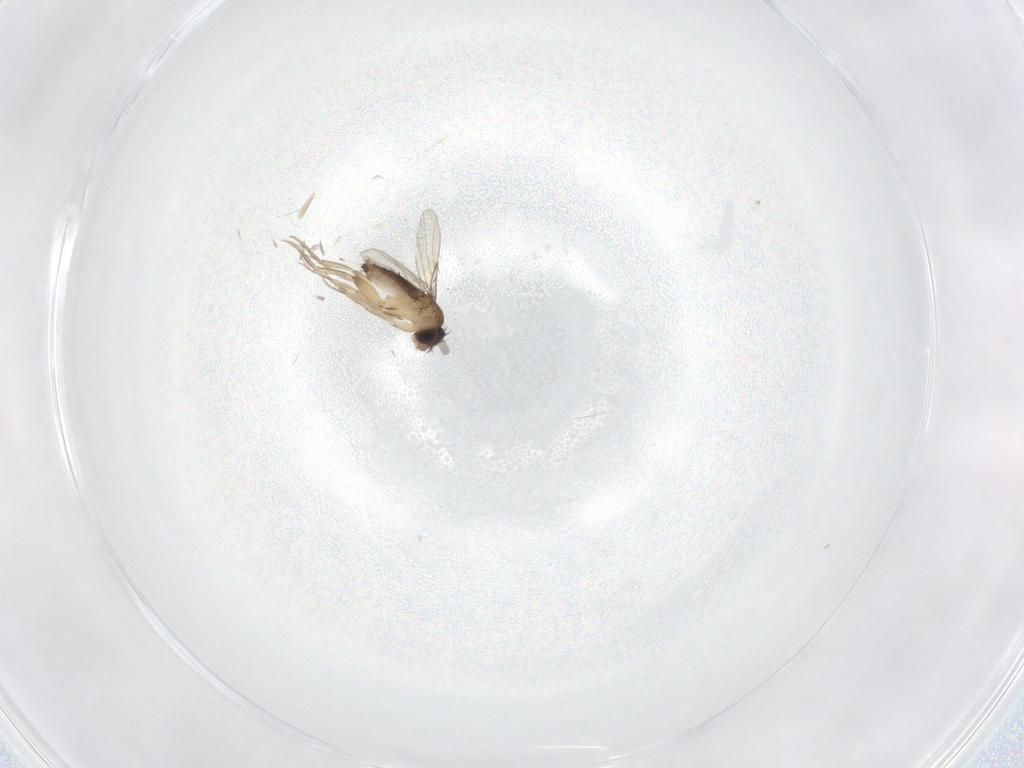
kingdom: Animalia
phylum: Arthropoda
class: Insecta
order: Diptera
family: Phoridae
